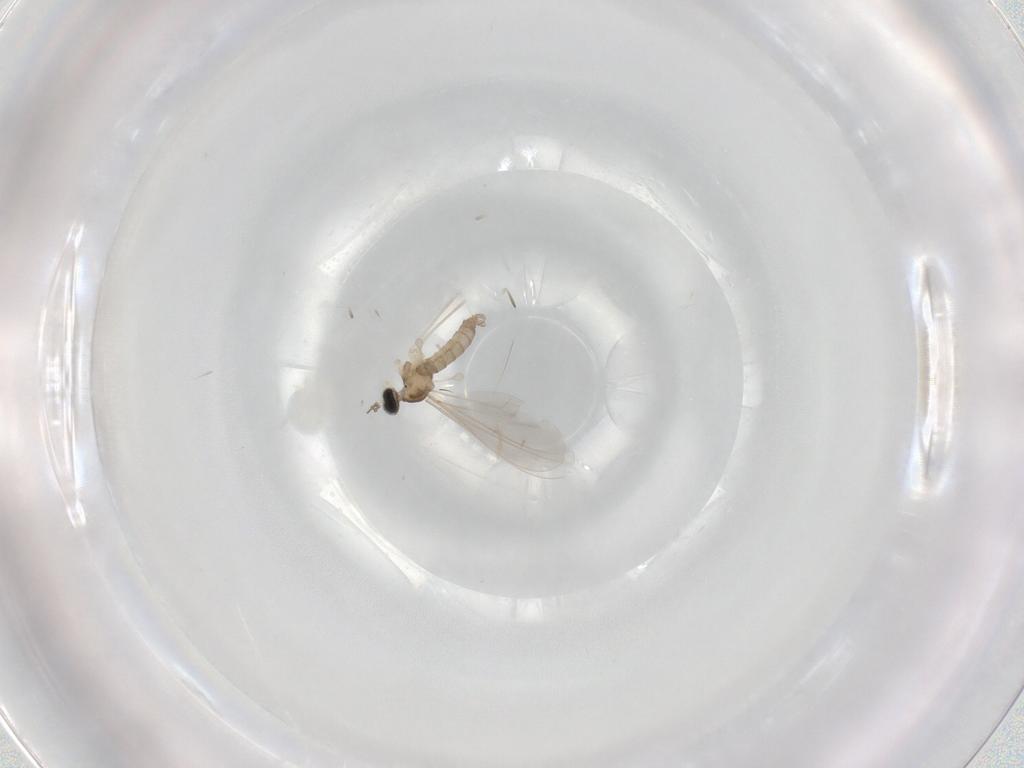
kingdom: Animalia
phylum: Arthropoda
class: Insecta
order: Diptera
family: Cecidomyiidae
